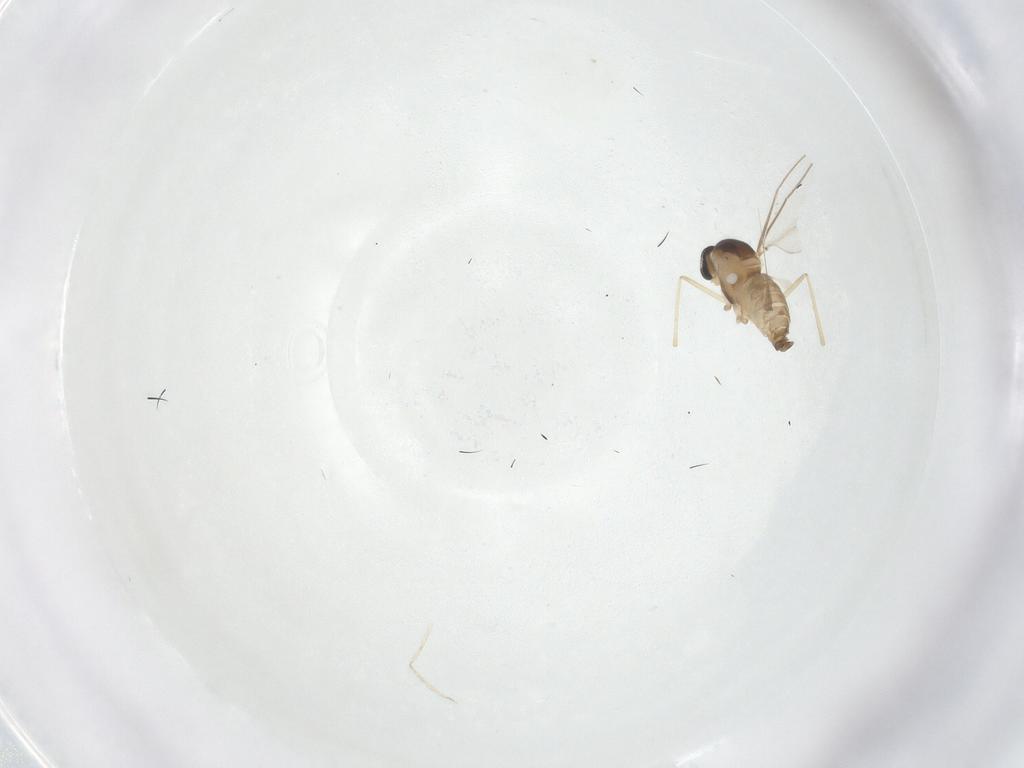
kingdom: Animalia
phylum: Arthropoda
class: Insecta
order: Diptera
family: Cecidomyiidae
